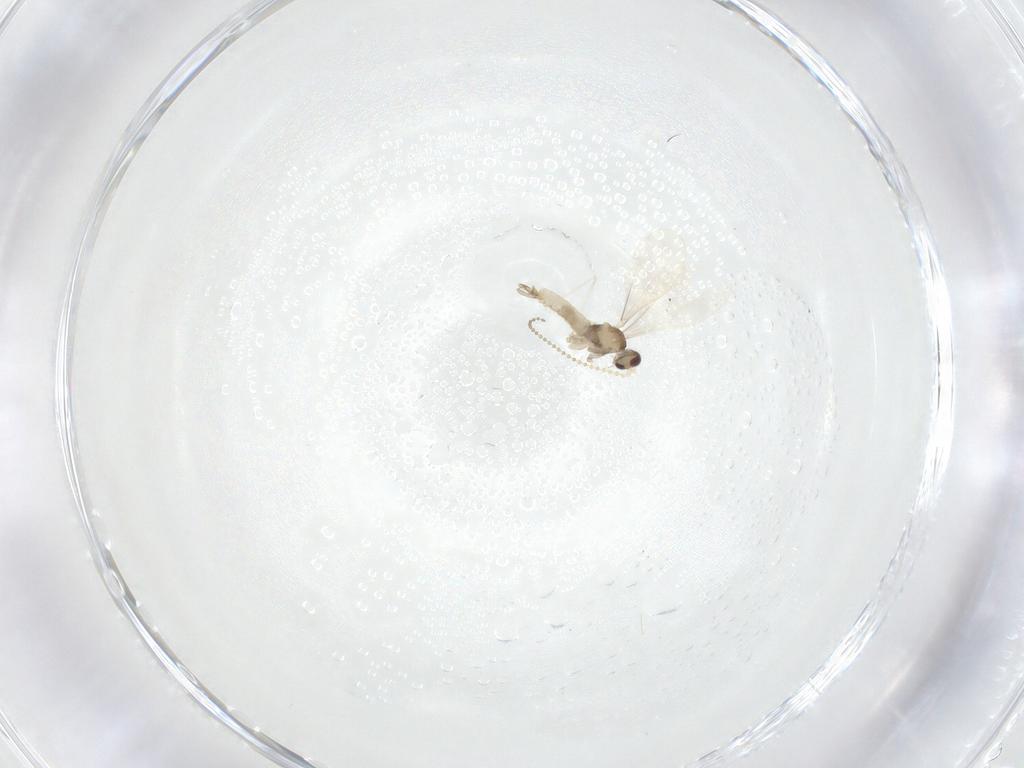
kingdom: Animalia
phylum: Arthropoda
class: Insecta
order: Diptera
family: Cecidomyiidae
